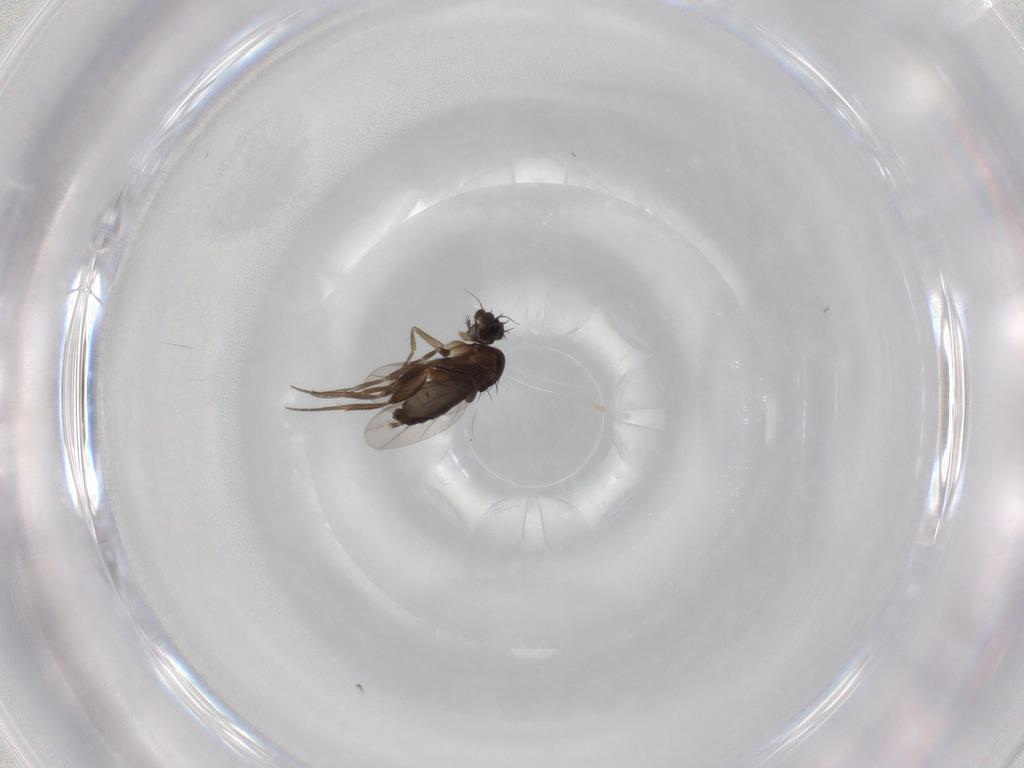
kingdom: Animalia
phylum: Arthropoda
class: Insecta
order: Diptera
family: Phoridae
